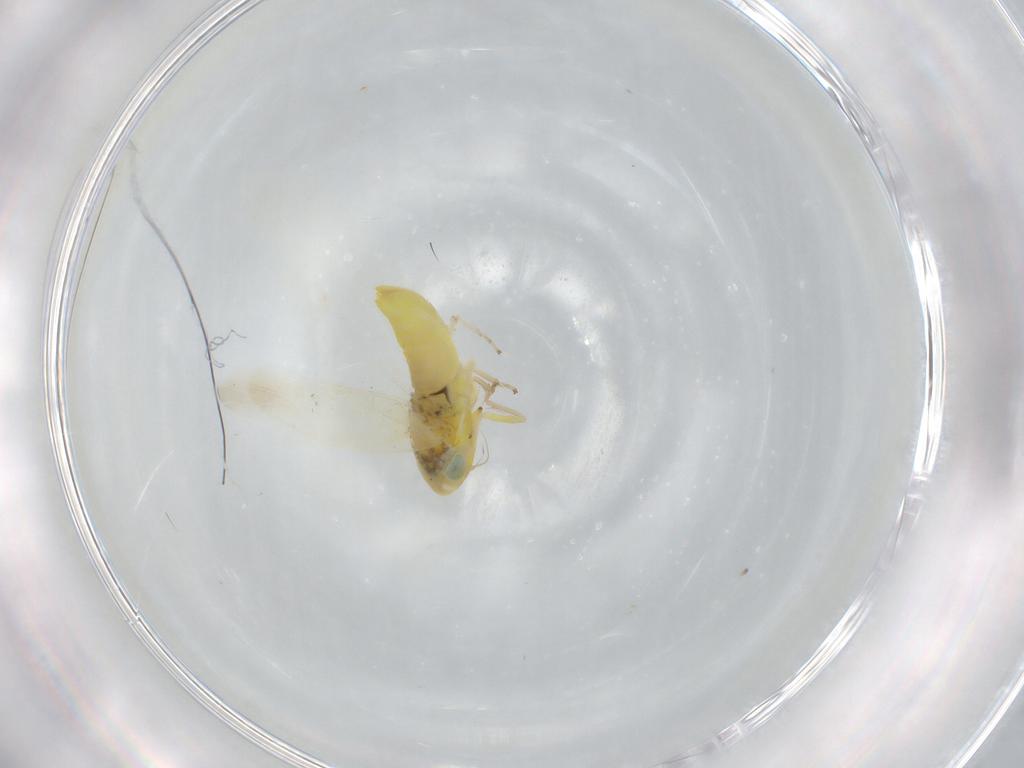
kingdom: Animalia
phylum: Arthropoda
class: Insecta
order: Hemiptera
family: Cicadellidae
